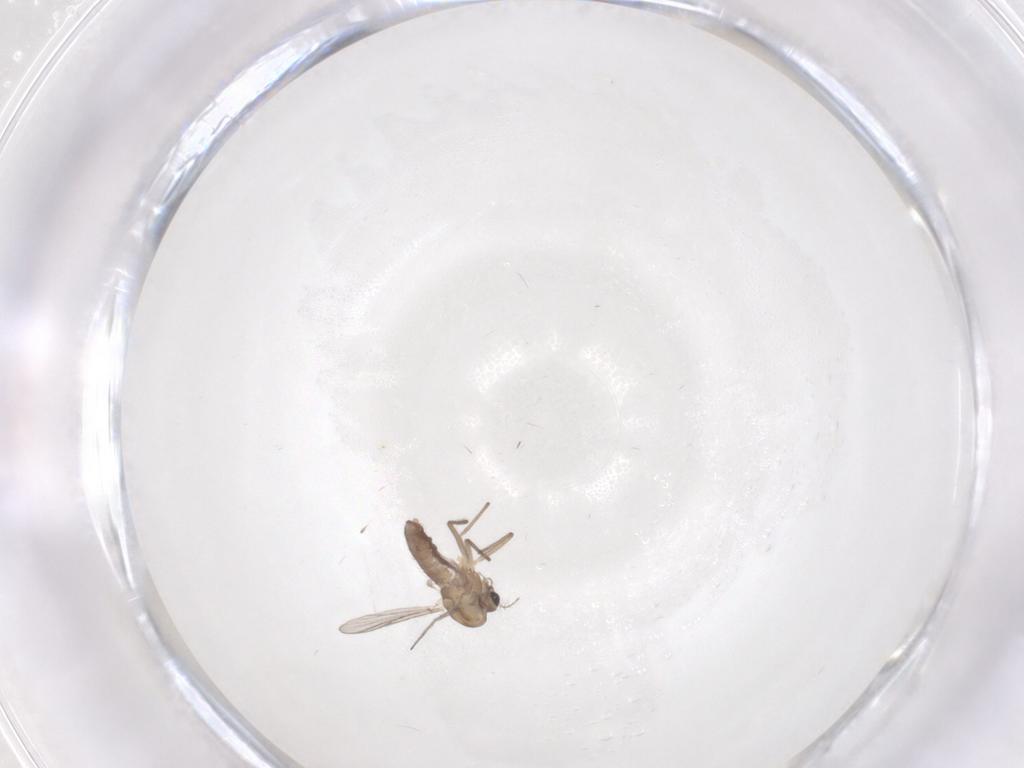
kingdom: Animalia
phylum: Arthropoda
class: Insecta
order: Diptera
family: Chironomidae
